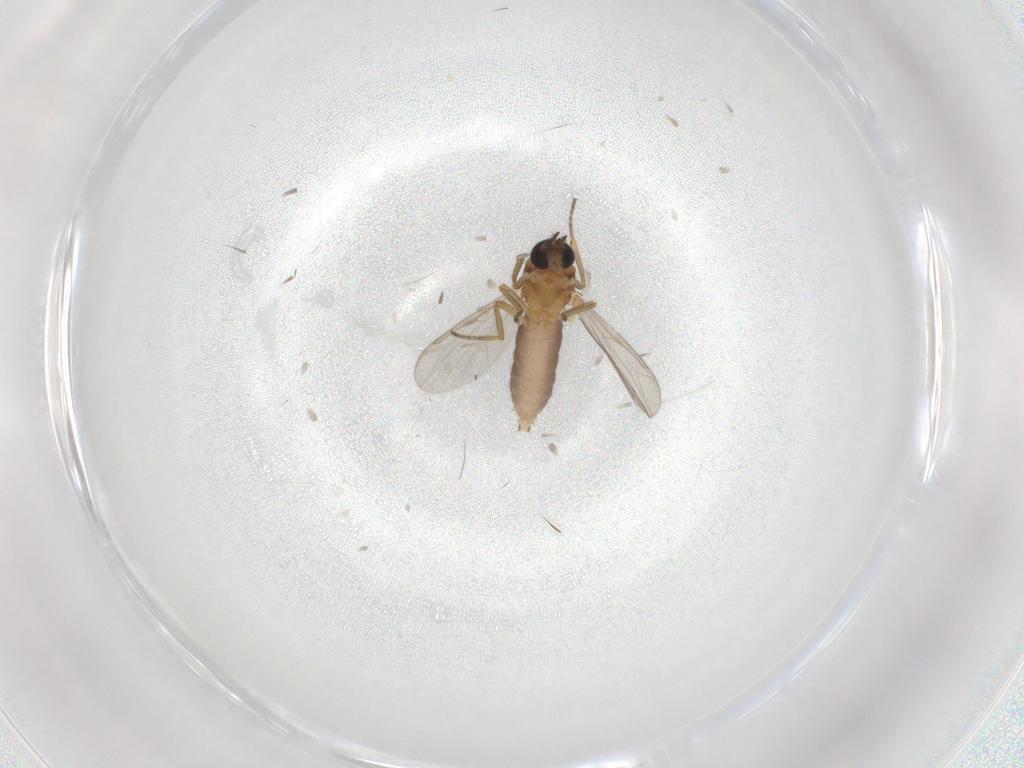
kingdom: Animalia
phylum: Arthropoda
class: Insecta
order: Diptera
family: Ceratopogonidae
